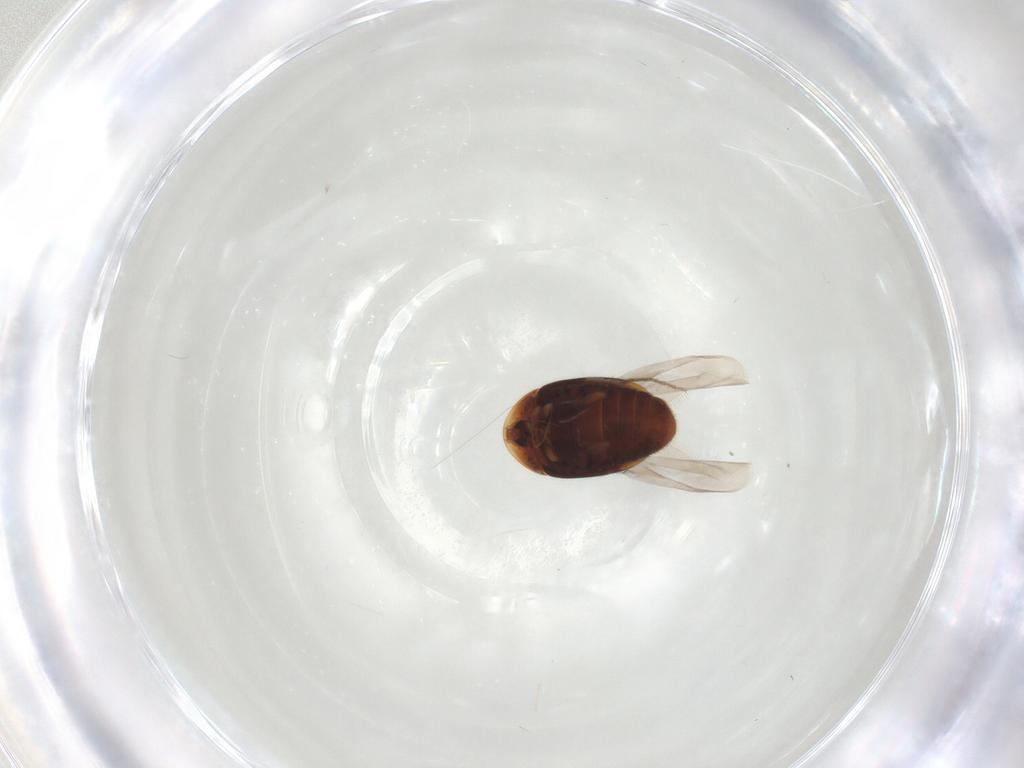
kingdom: Animalia
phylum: Arthropoda
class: Insecta
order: Coleoptera
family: Corylophidae
